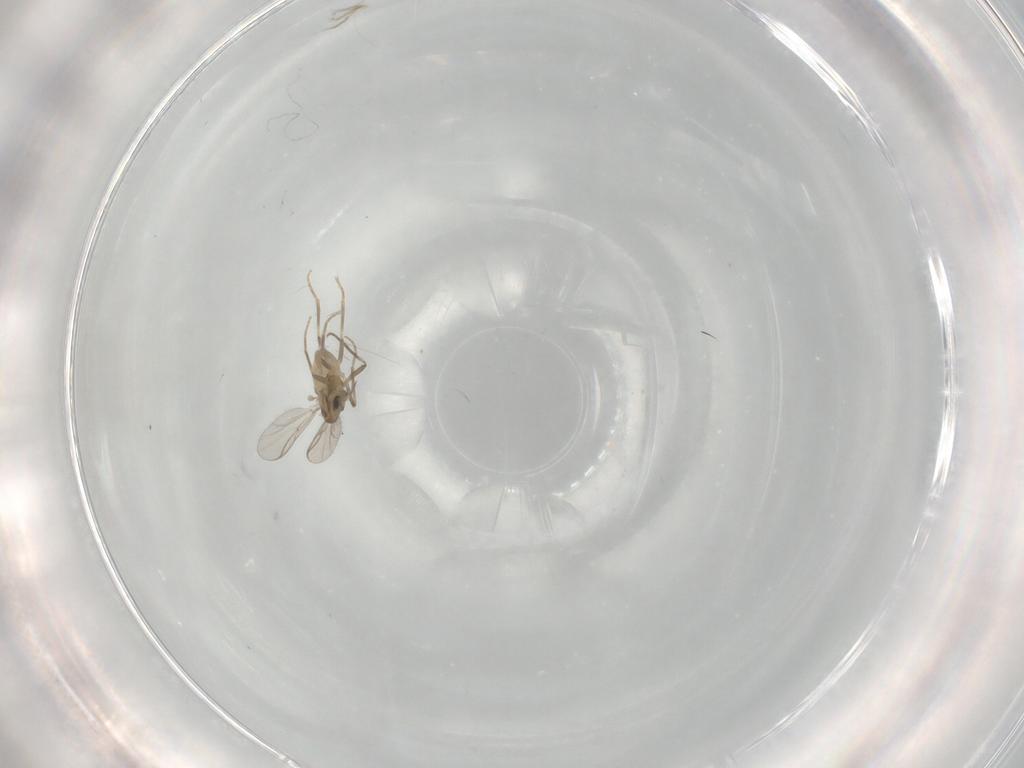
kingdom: Animalia
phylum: Arthropoda
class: Insecta
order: Diptera
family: Chironomidae
